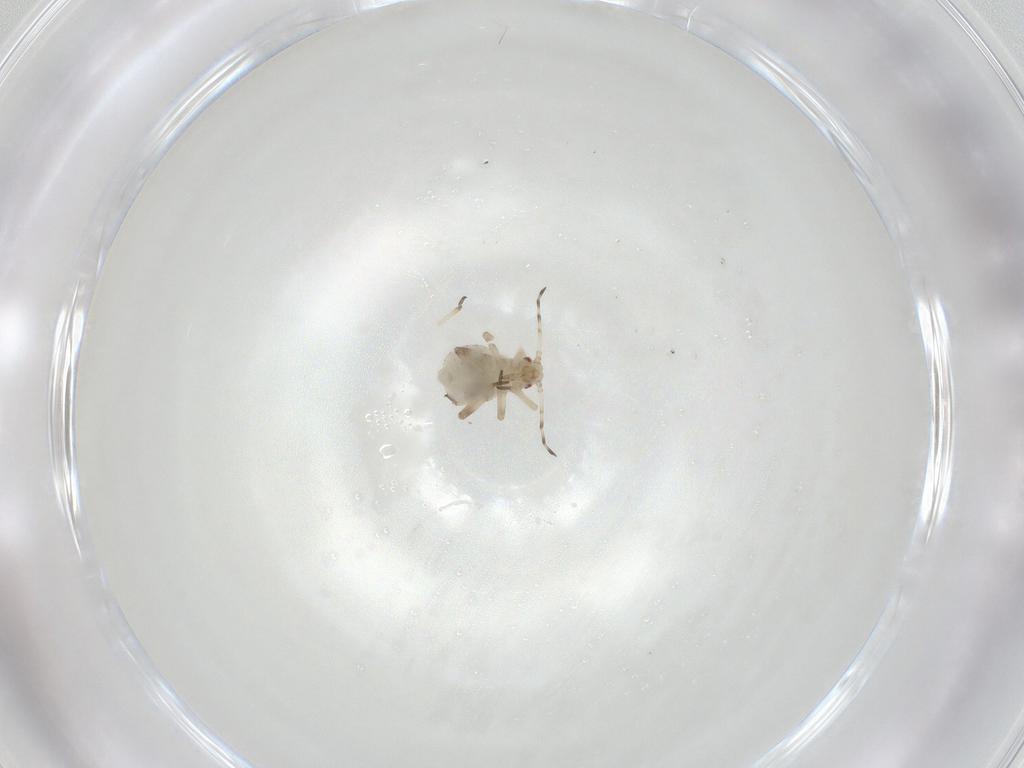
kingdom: Animalia
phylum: Arthropoda
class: Insecta
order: Hemiptera
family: Aphididae
